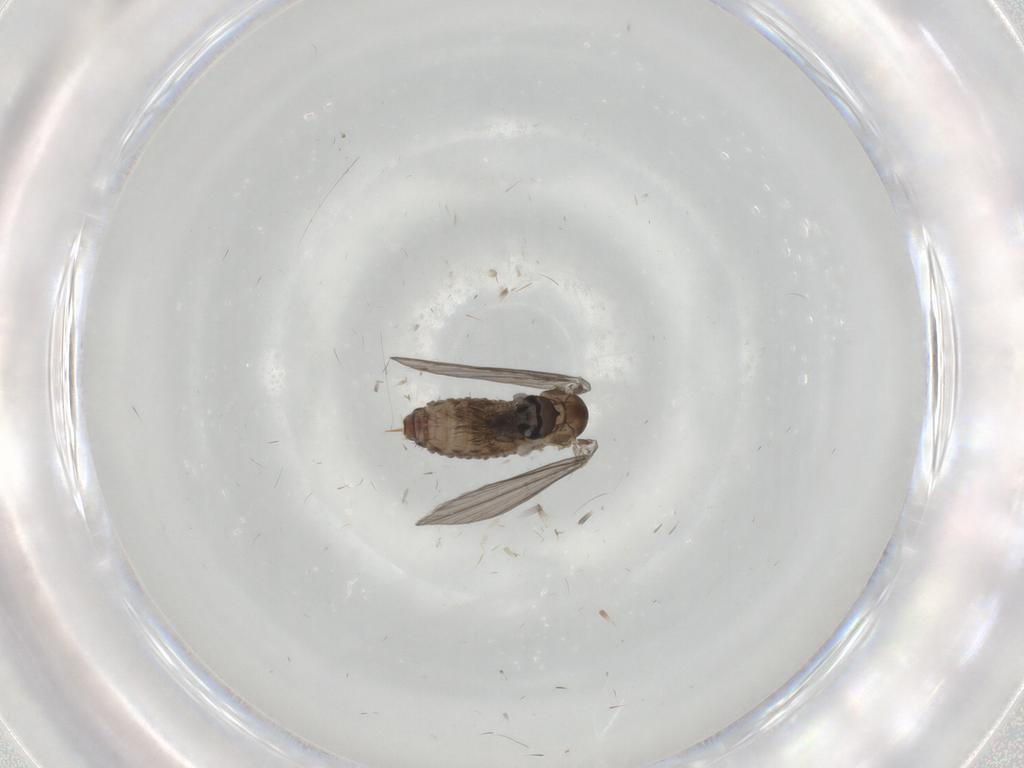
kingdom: Animalia
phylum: Arthropoda
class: Insecta
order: Diptera
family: Psychodidae
